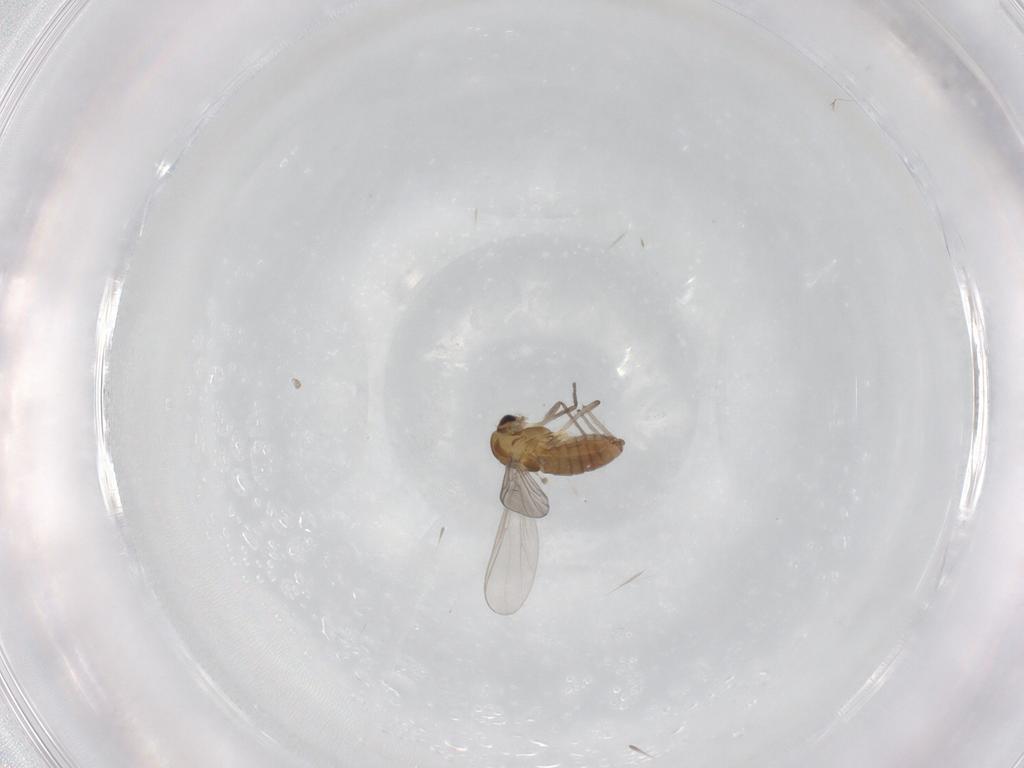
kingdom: Animalia
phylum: Arthropoda
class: Insecta
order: Diptera
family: Chironomidae
